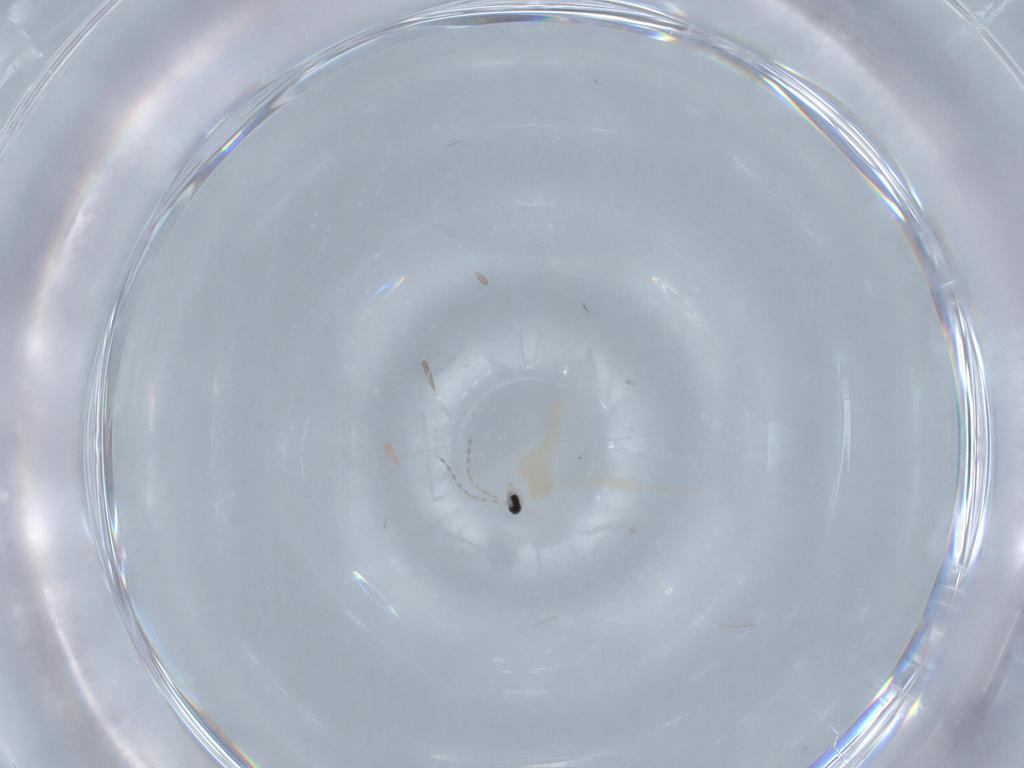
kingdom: Animalia
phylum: Arthropoda
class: Insecta
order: Diptera
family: Cecidomyiidae
